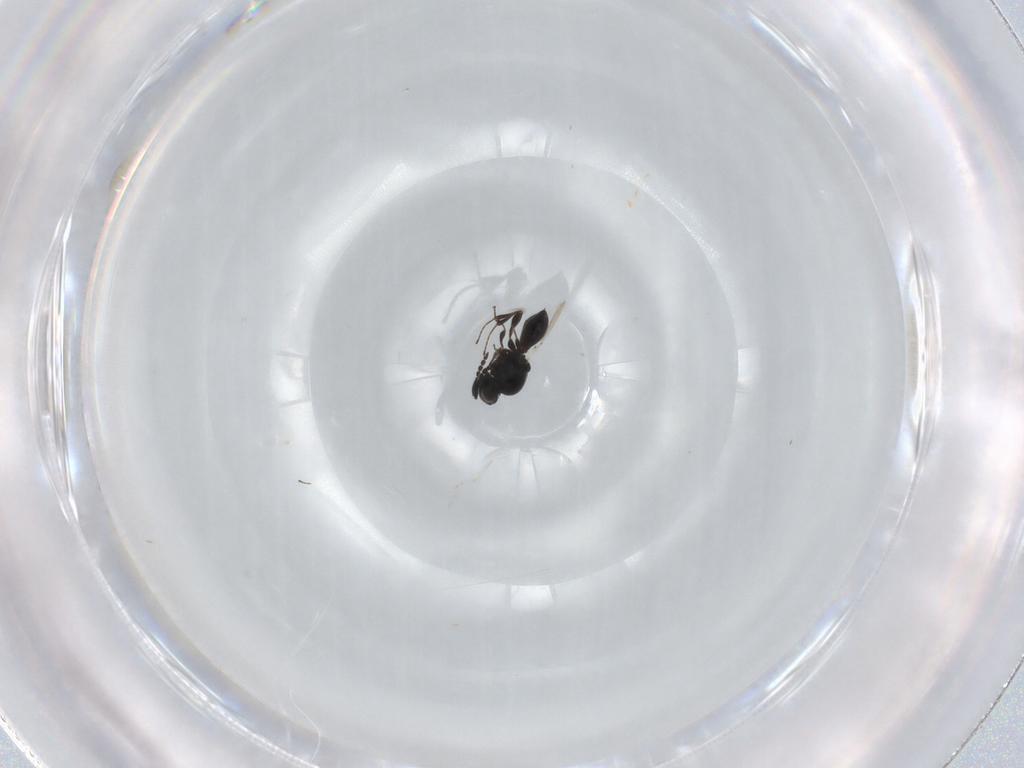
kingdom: Animalia
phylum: Arthropoda
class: Insecta
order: Hymenoptera
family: Platygastridae
